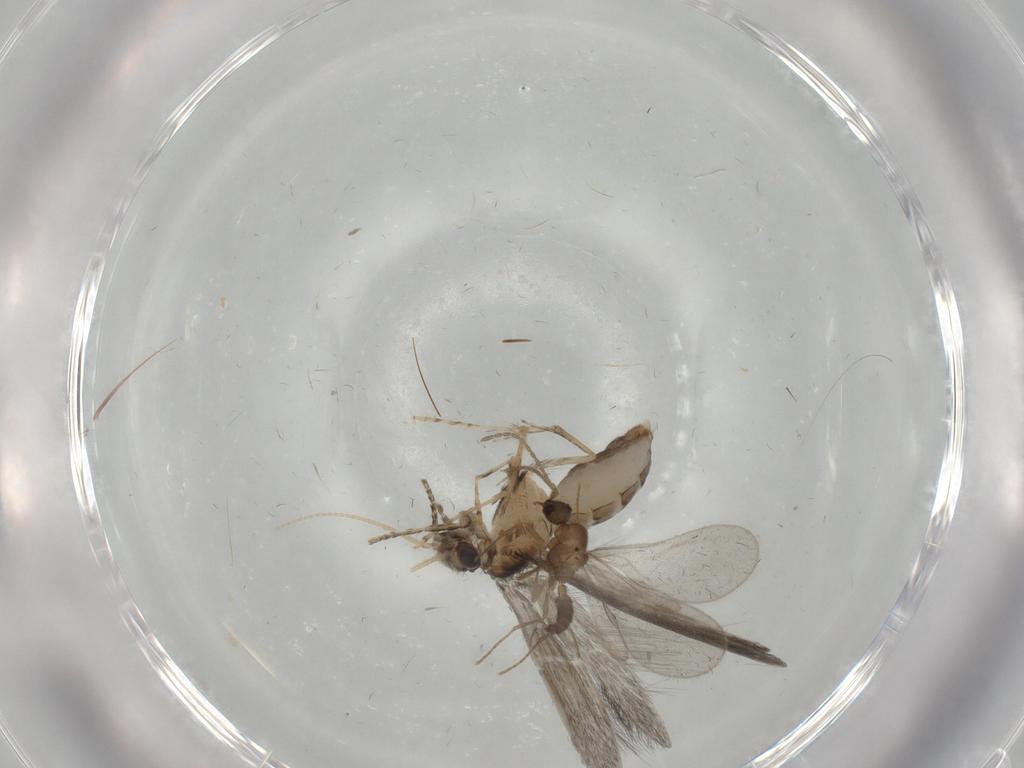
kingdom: Animalia
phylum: Arthropoda
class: Insecta
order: Hymenoptera
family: Formicidae
